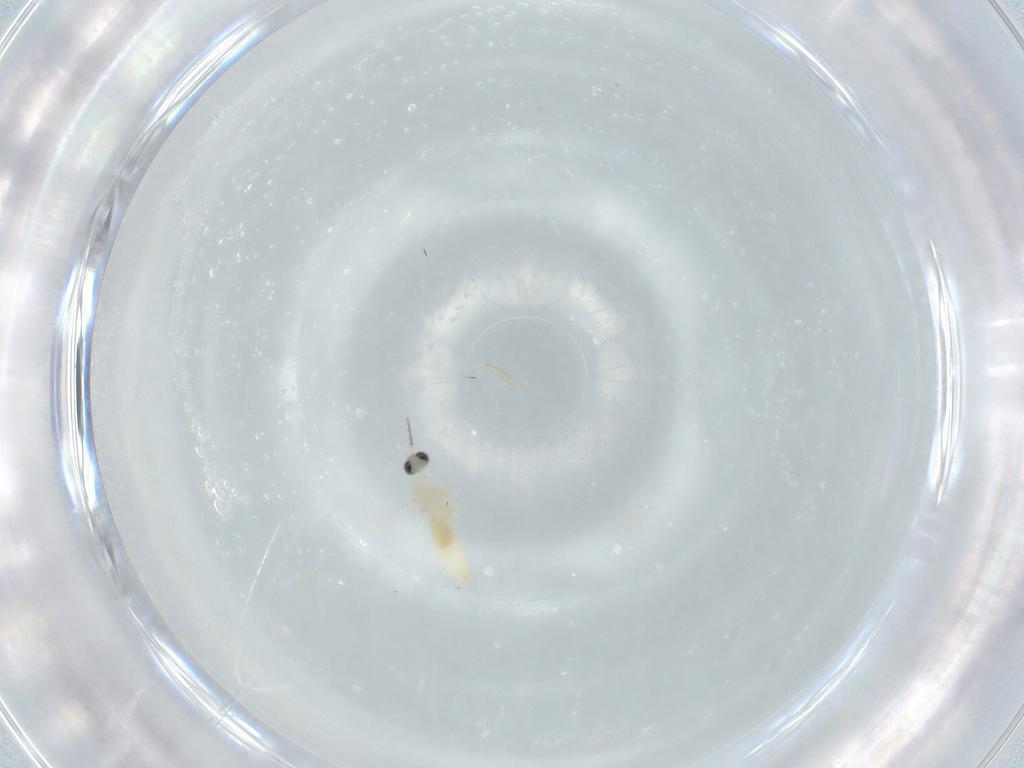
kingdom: Animalia
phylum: Arthropoda
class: Insecta
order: Diptera
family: Cecidomyiidae
